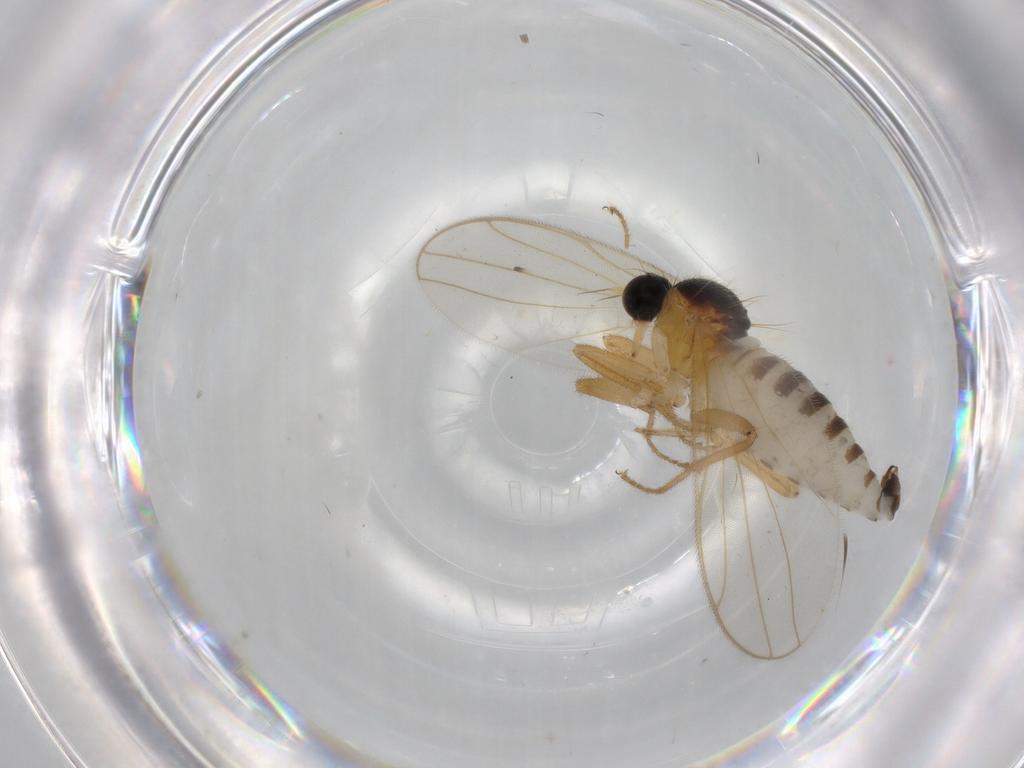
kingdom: Animalia
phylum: Arthropoda
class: Insecta
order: Diptera
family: Hybotidae
